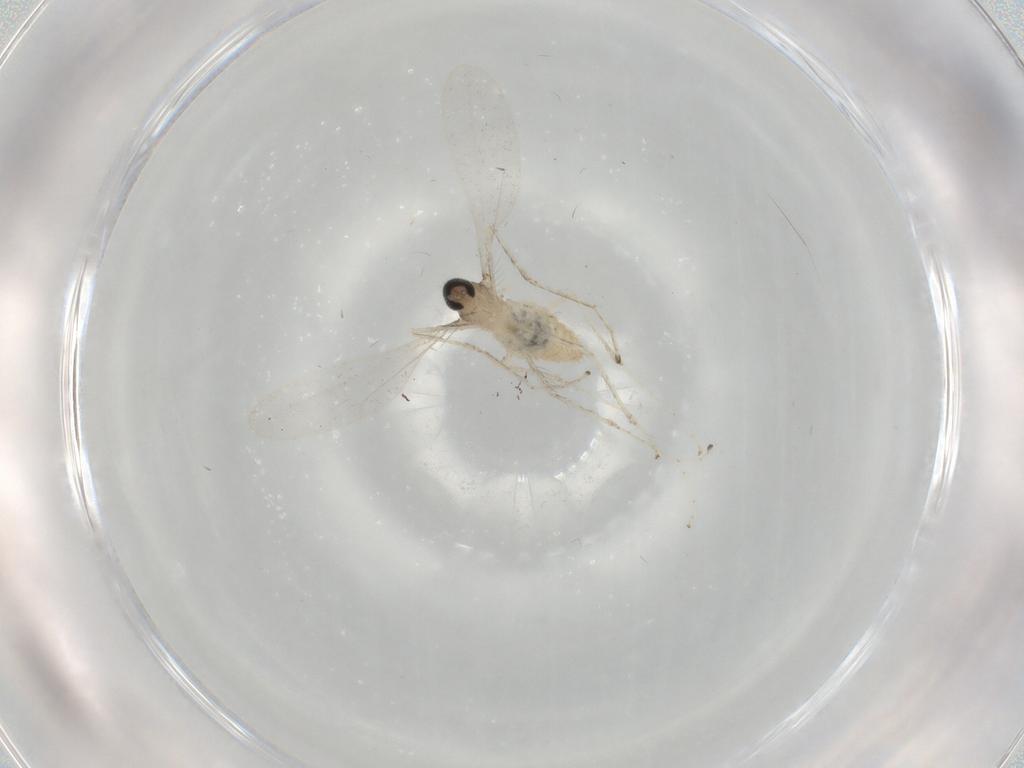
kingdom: Animalia
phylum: Arthropoda
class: Insecta
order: Diptera
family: Cecidomyiidae
